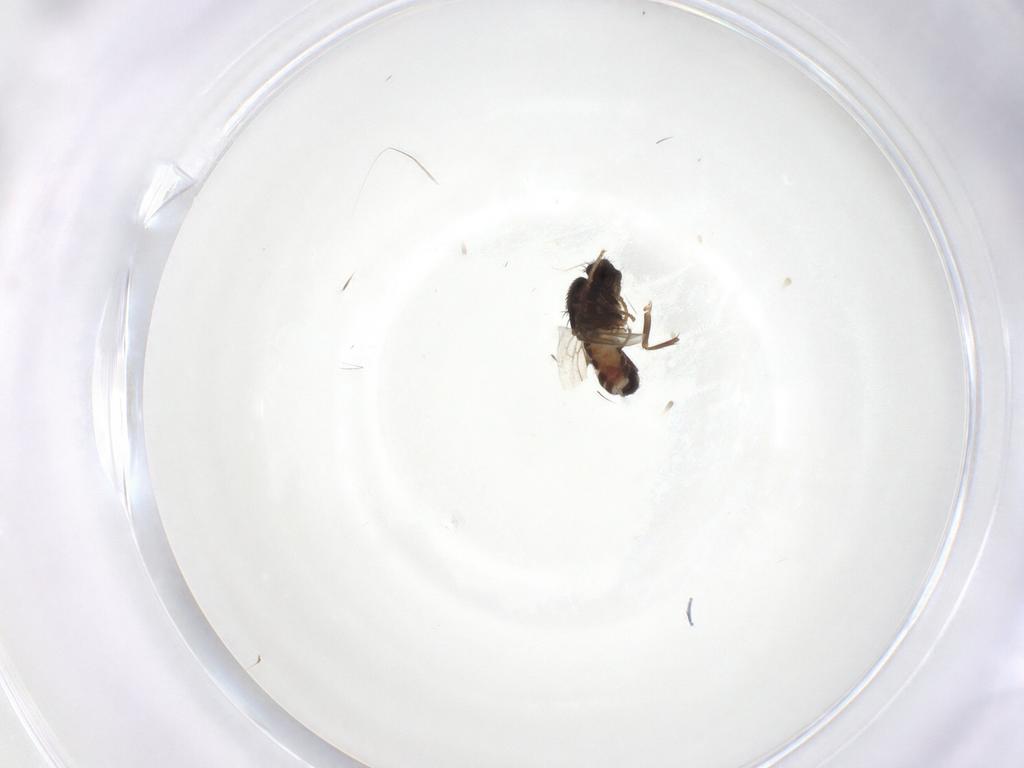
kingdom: Animalia
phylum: Arthropoda
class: Insecta
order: Diptera
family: Sphaeroceridae
